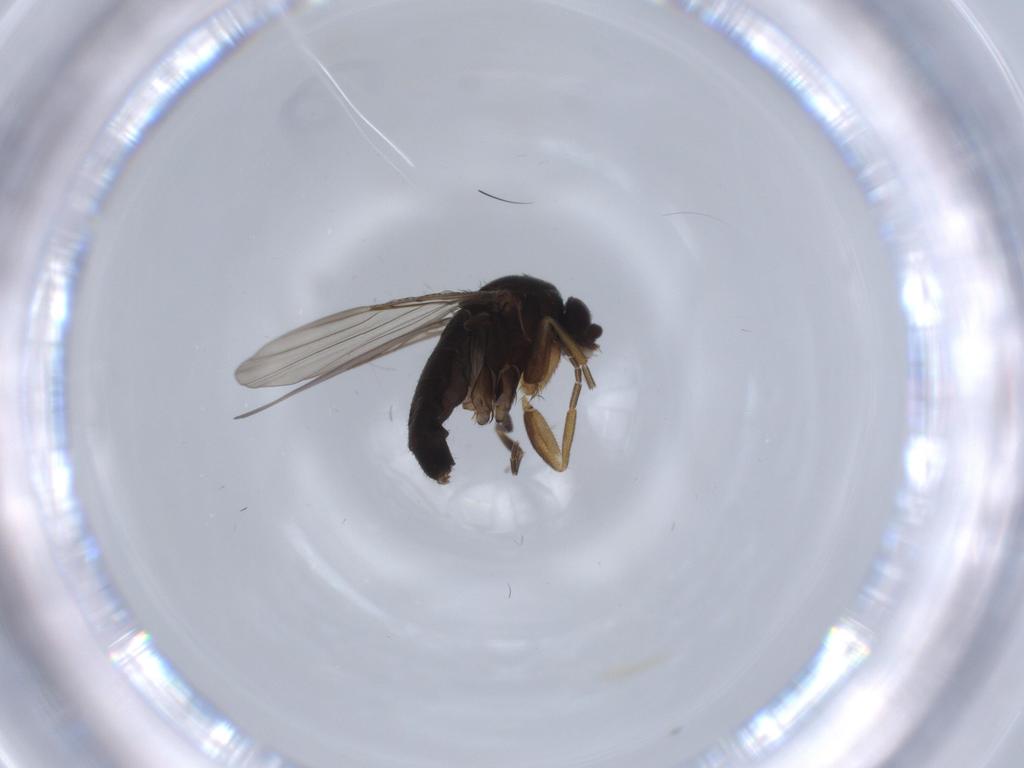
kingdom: Animalia
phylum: Arthropoda
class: Insecta
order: Diptera
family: Phoridae
